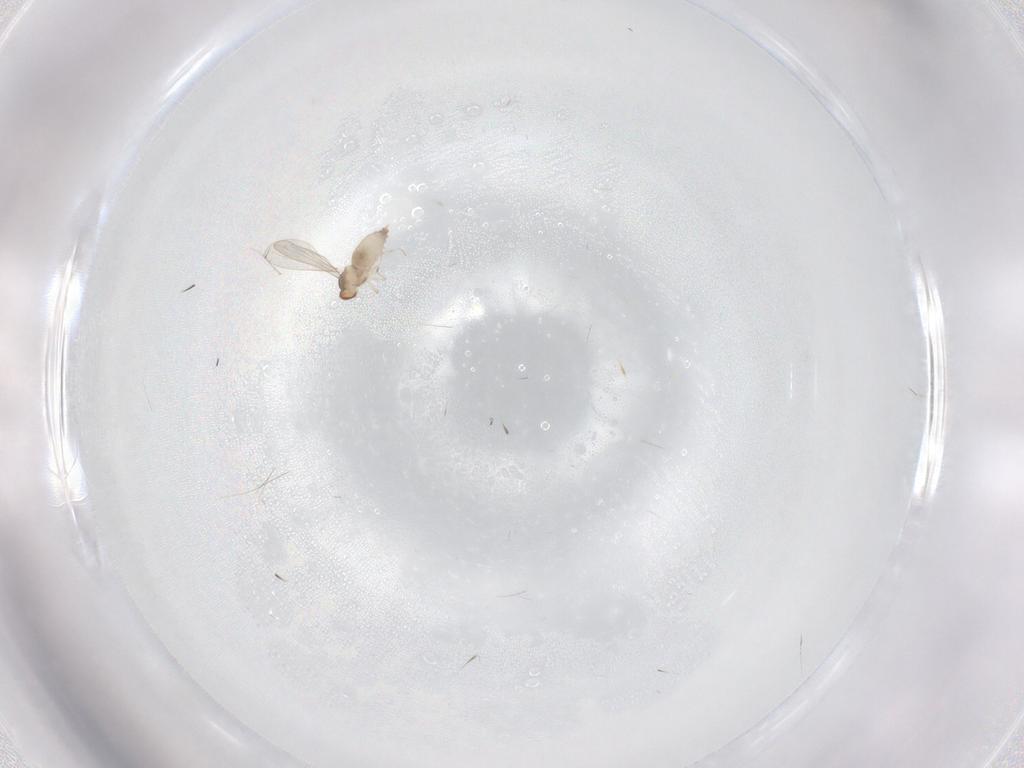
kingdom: Animalia
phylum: Arthropoda
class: Insecta
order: Diptera
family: Cecidomyiidae
